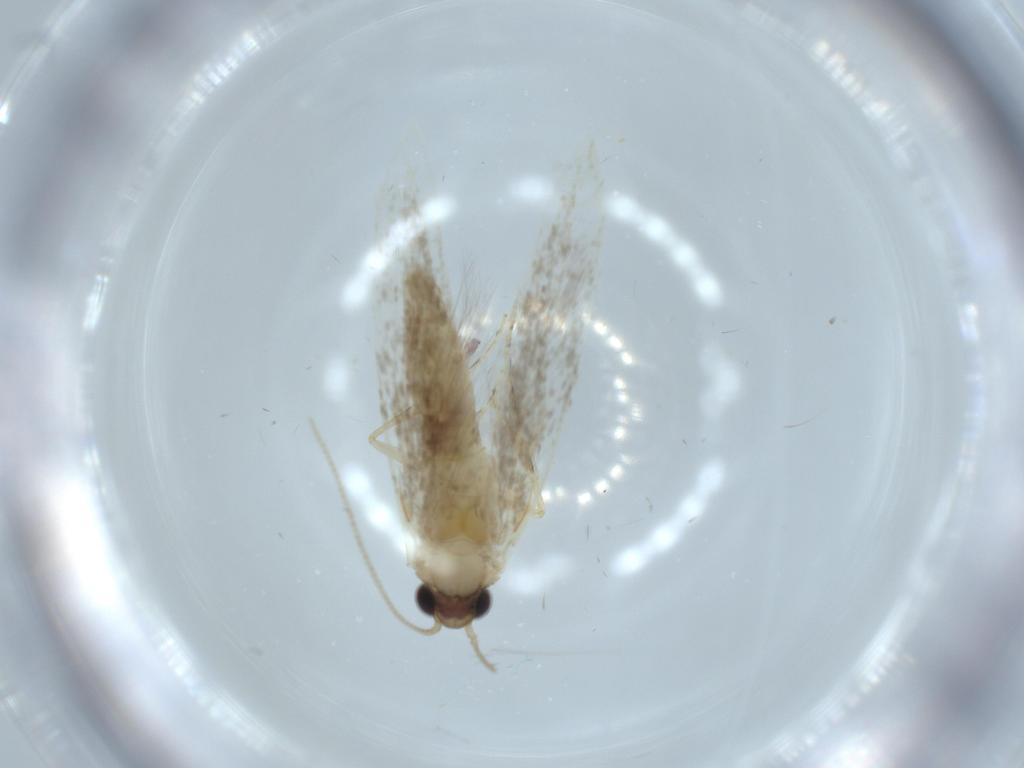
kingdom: Animalia
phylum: Arthropoda
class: Insecta
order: Lepidoptera
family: Tineidae
